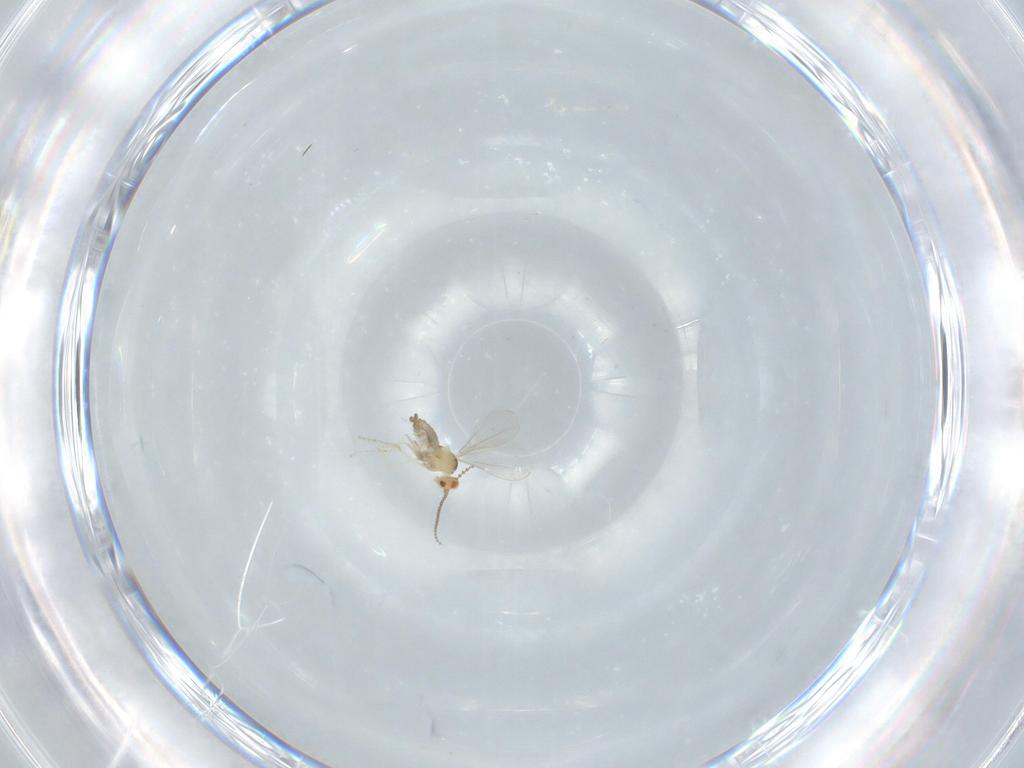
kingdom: Animalia
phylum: Arthropoda
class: Insecta
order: Diptera
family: Cecidomyiidae
